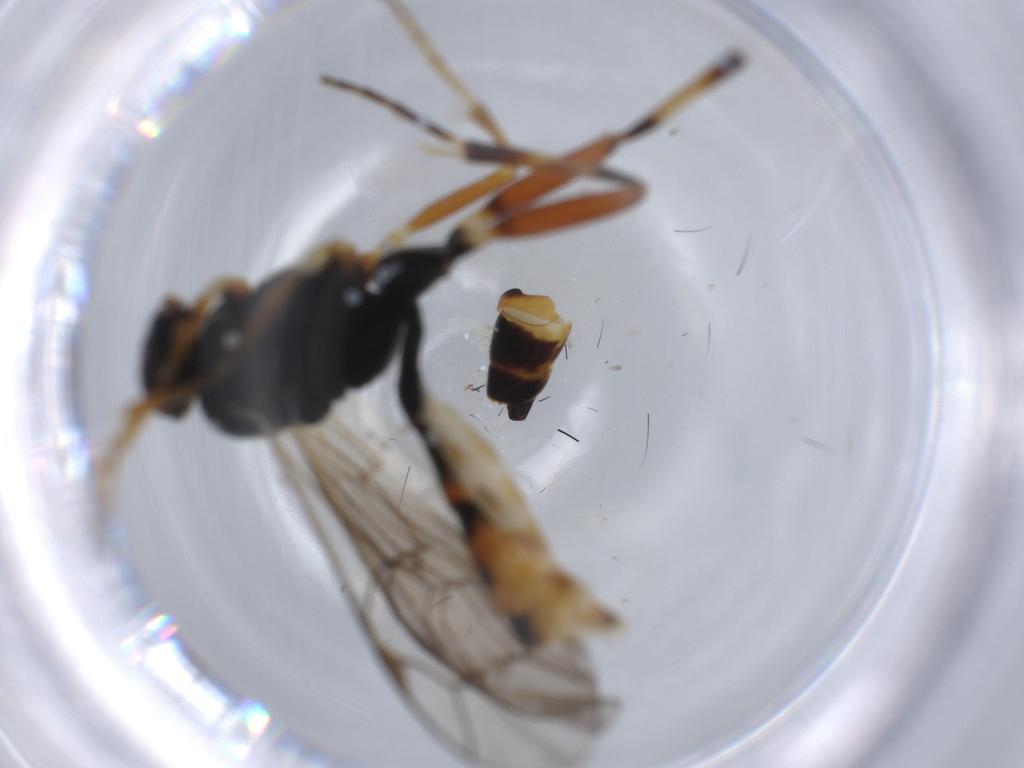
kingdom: Animalia
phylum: Arthropoda
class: Insecta
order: Hymenoptera
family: Ichneumonidae
